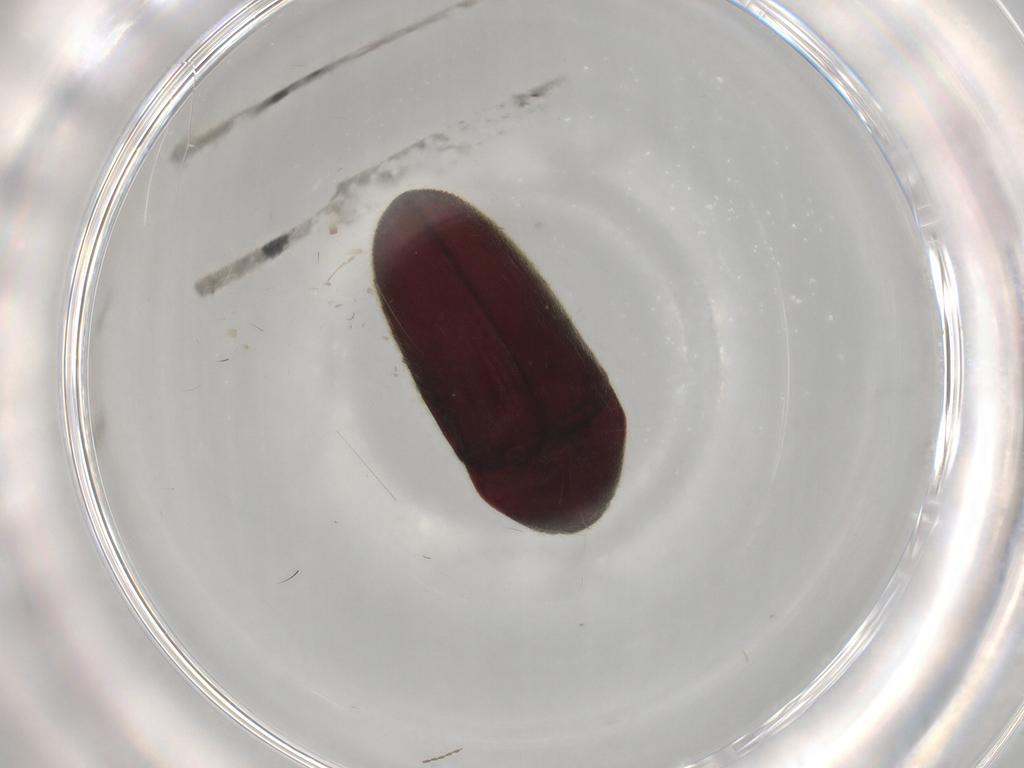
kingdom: Animalia
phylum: Arthropoda
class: Insecta
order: Coleoptera
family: Throscidae
